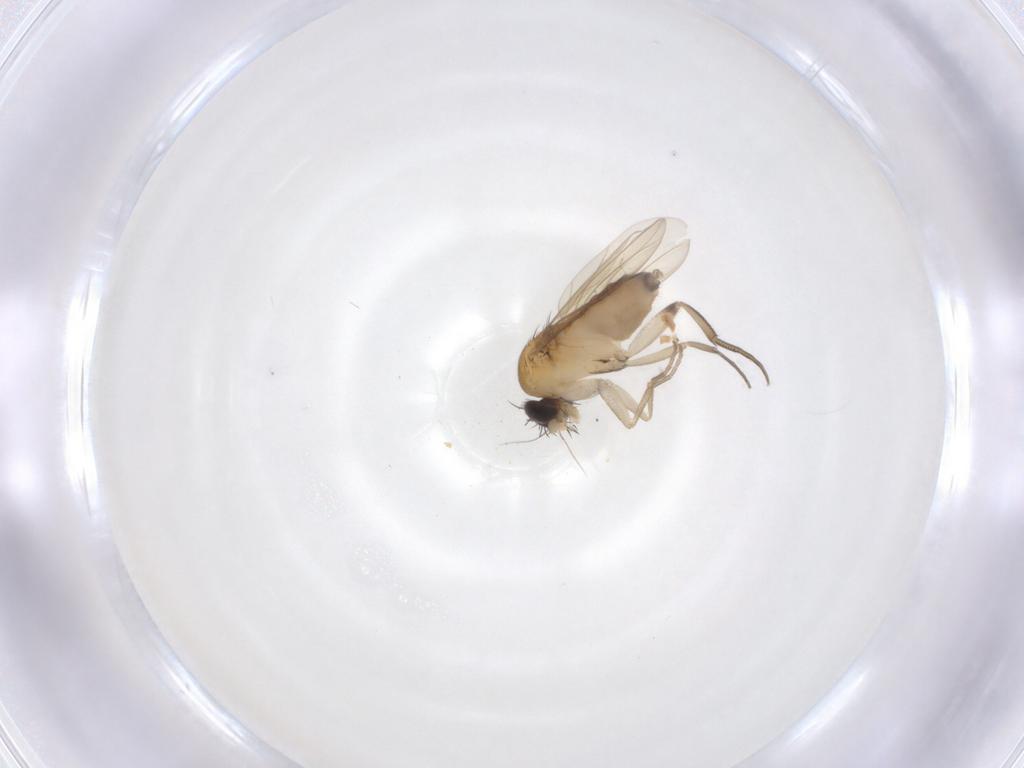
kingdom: Animalia
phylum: Arthropoda
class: Insecta
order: Diptera
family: Phoridae
